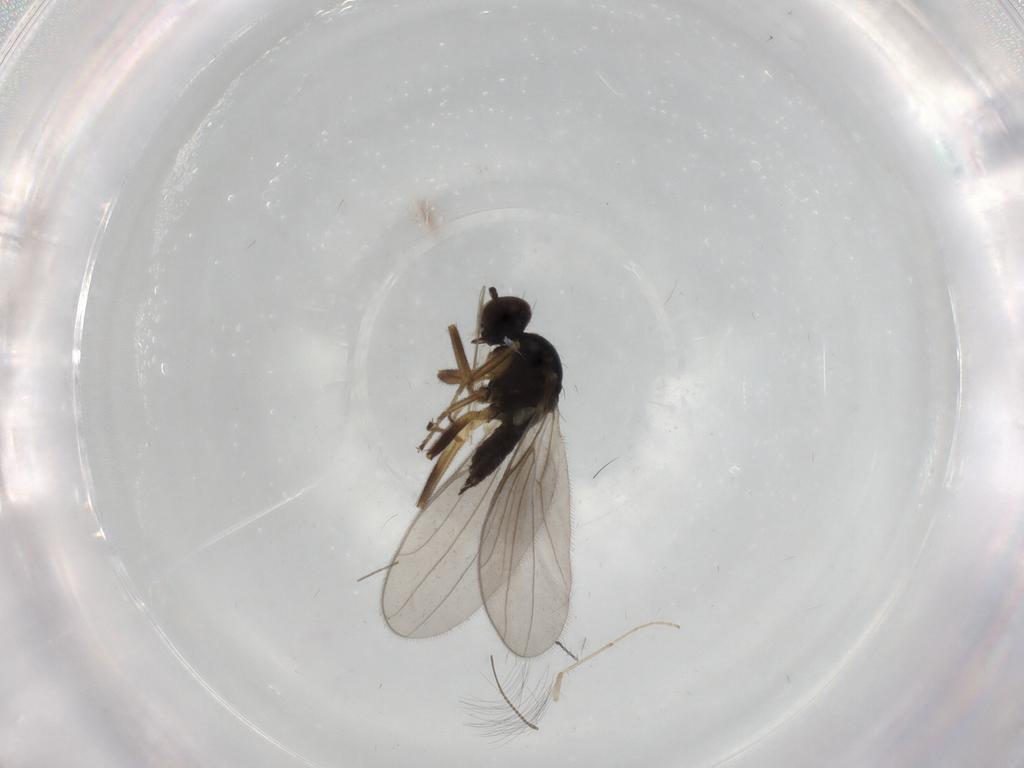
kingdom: Animalia
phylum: Arthropoda
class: Insecta
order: Diptera
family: Hybotidae
